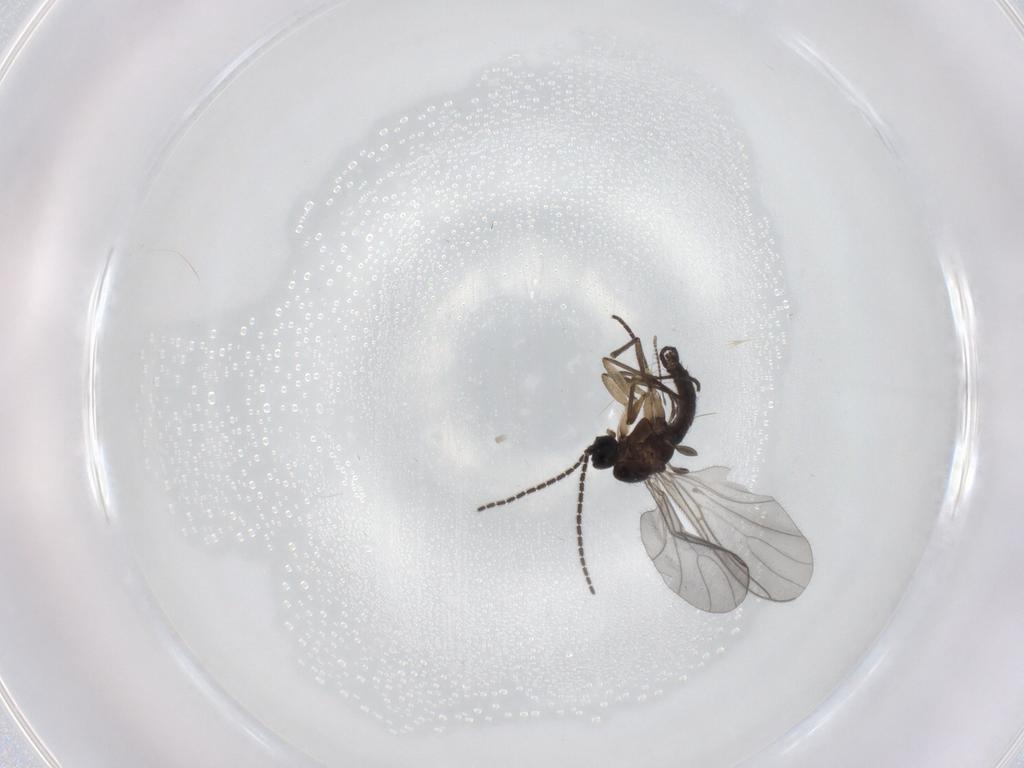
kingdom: Animalia
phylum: Arthropoda
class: Insecta
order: Diptera
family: Sciaridae
